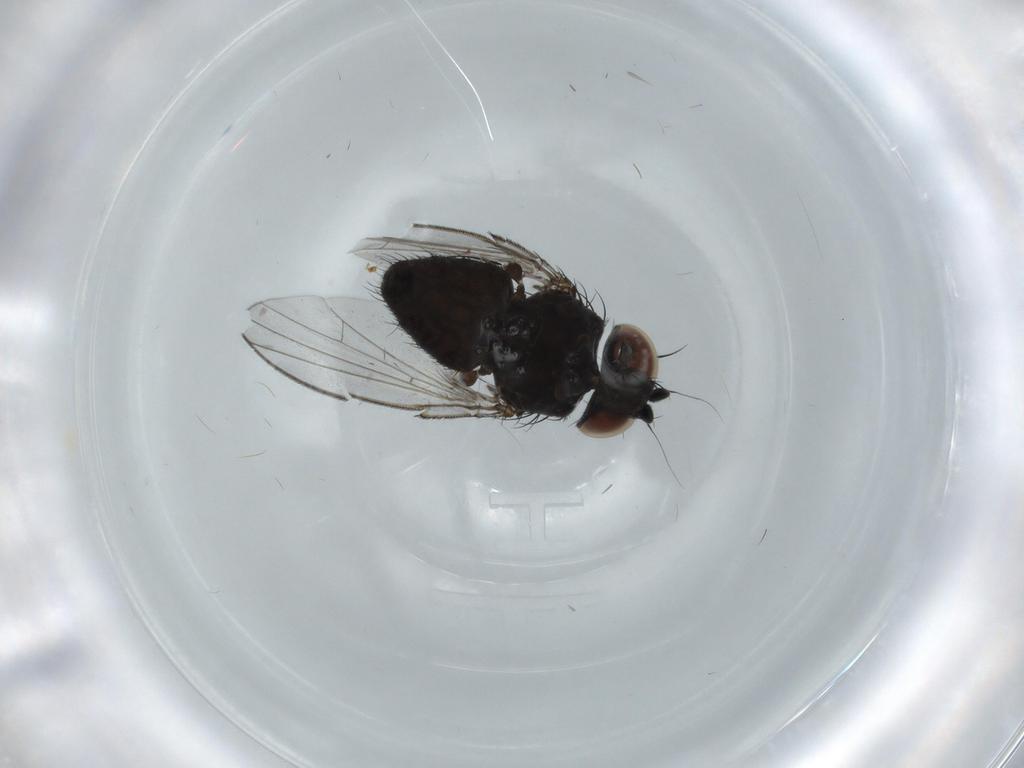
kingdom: Animalia
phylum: Arthropoda
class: Insecta
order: Diptera
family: Milichiidae
